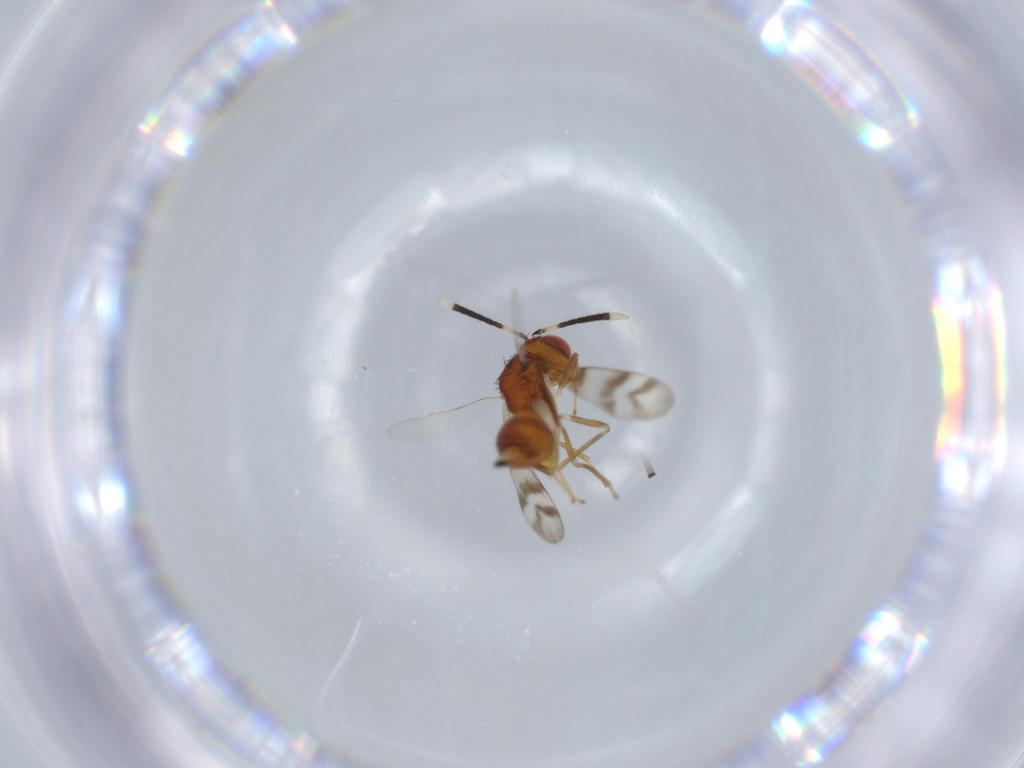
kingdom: Animalia
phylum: Arthropoda
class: Insecta
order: Hymenoptera
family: Diparidae
